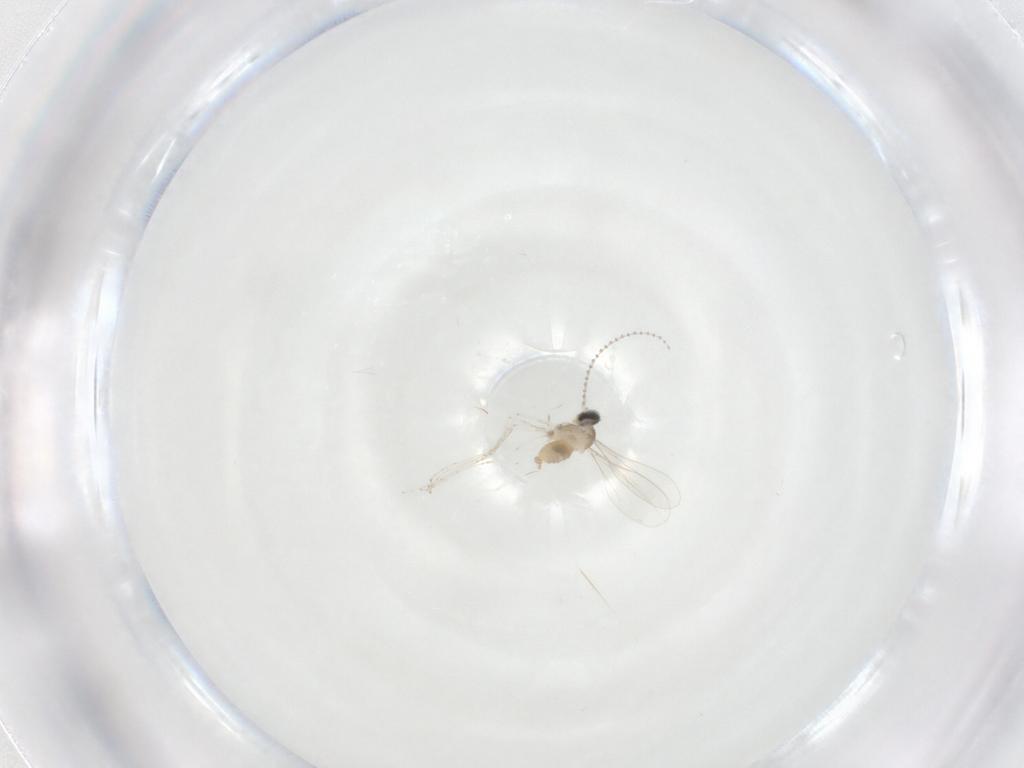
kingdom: Animalia
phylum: Arthropoda
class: Insecta
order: Diptera
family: Cecidomyiidae
